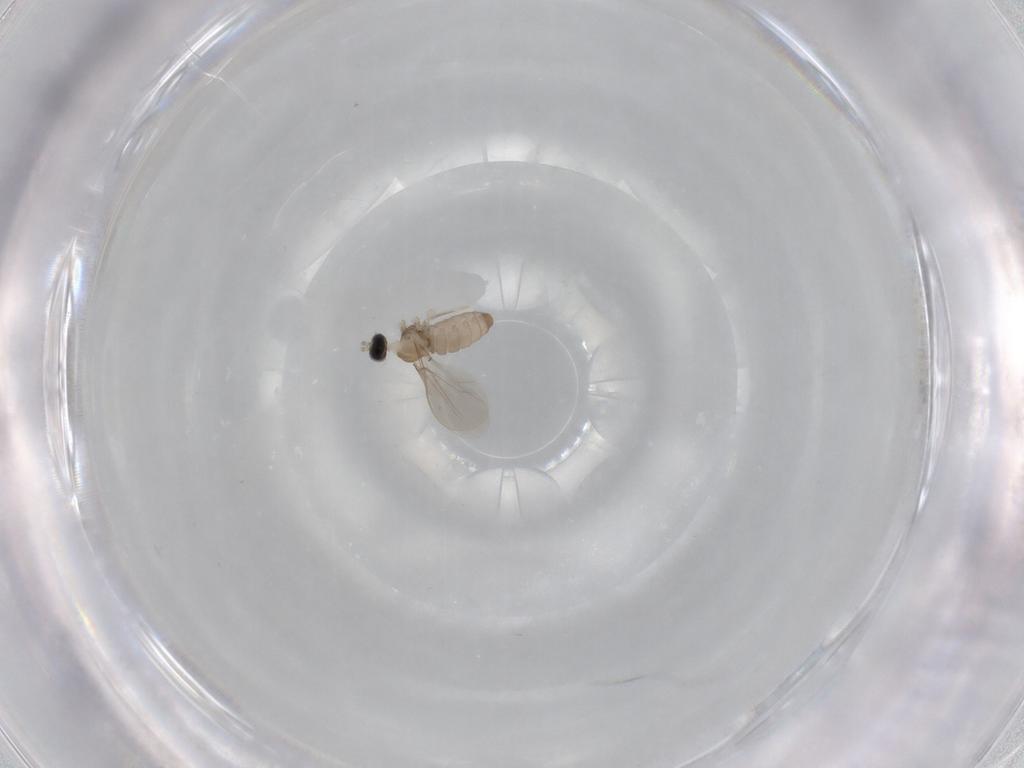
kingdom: Animalia
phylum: Arthropoda
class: Insecta
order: Diptera
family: Cecidomyiidae
